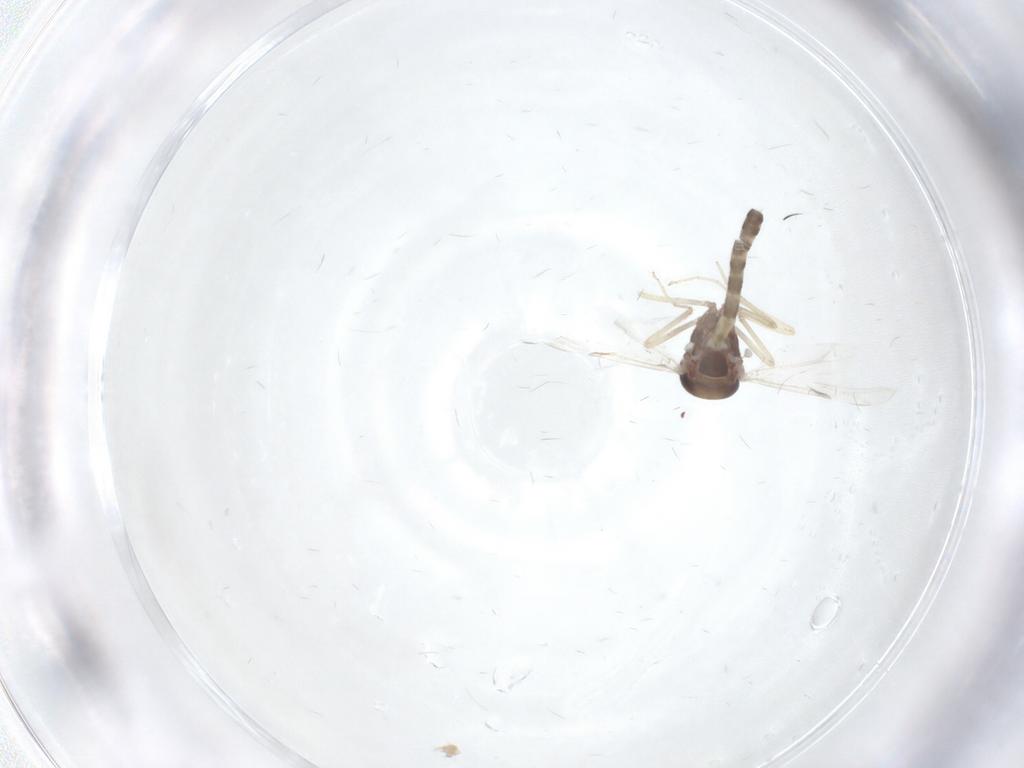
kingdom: Animalia
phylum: Arthropoda
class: Insecta
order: Diptera
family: Ceratopogonidae
